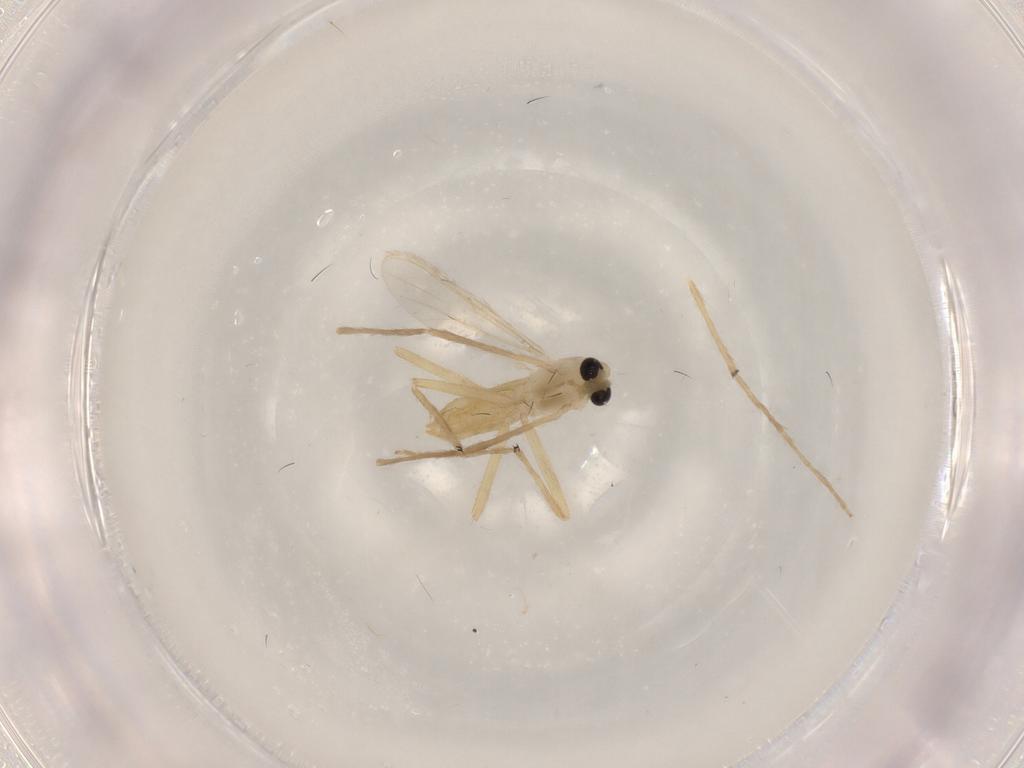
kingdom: Animalia
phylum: Arthropoda
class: Insecta
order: Diptera
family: Chironomidae
